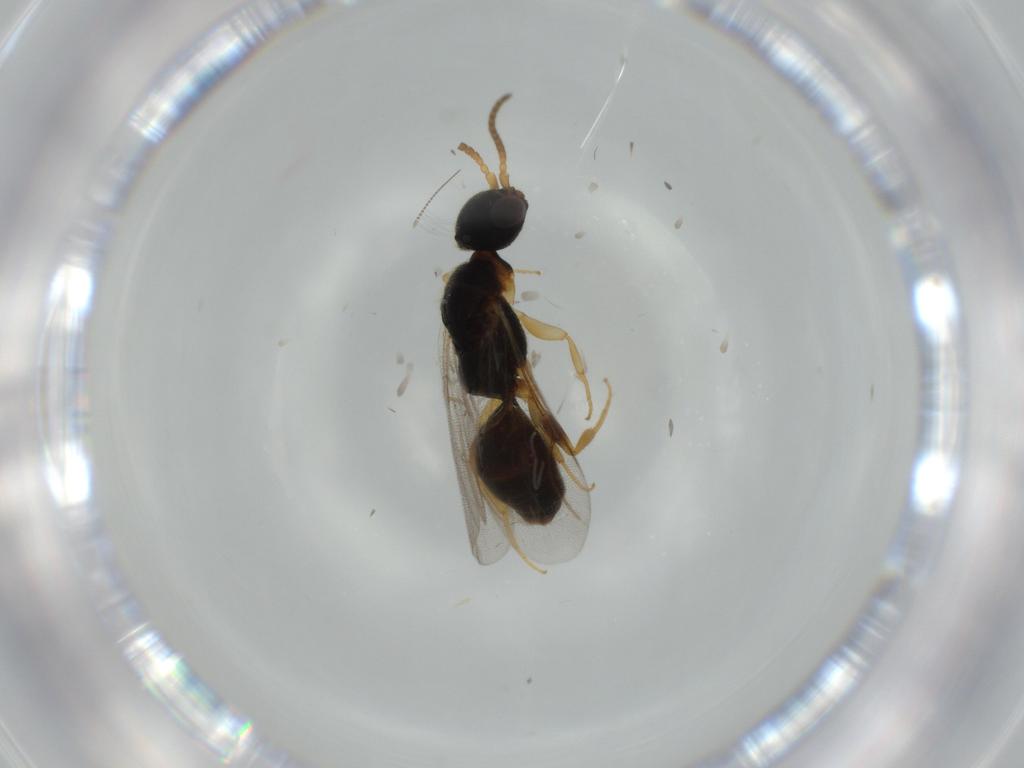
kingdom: Animalia
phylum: Arthropoda
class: Insecta
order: Hymenoptera
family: Bethylidae
